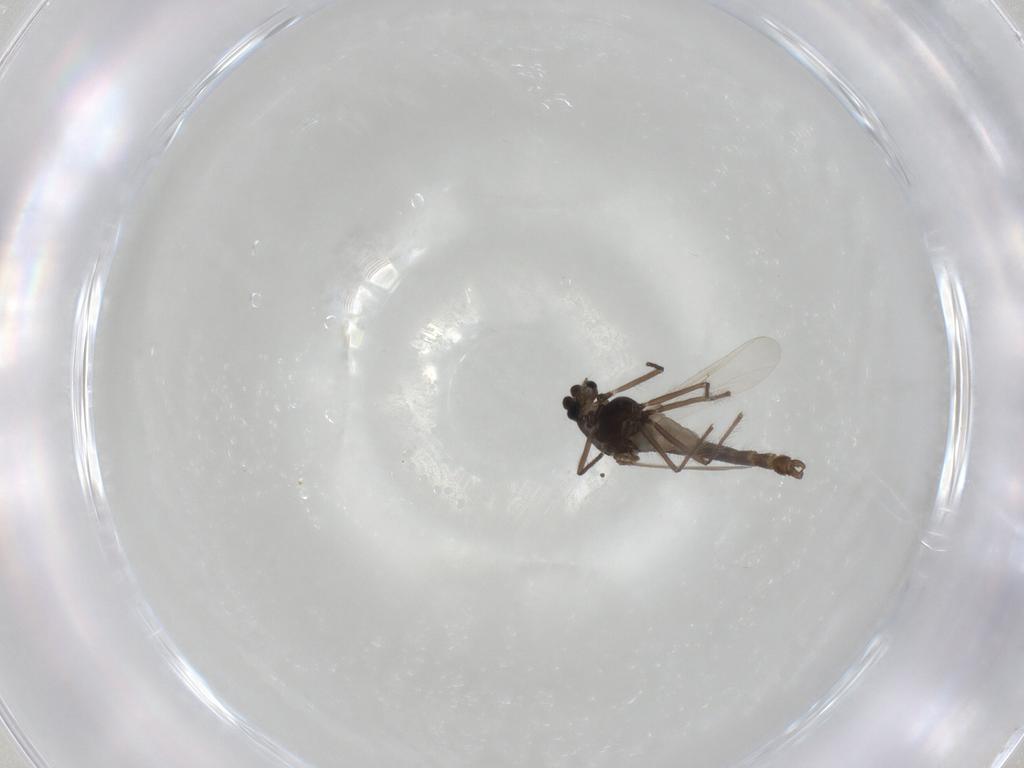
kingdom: Animalia
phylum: Arthropoda
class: Insecta
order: Diptera
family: Chironomidae
